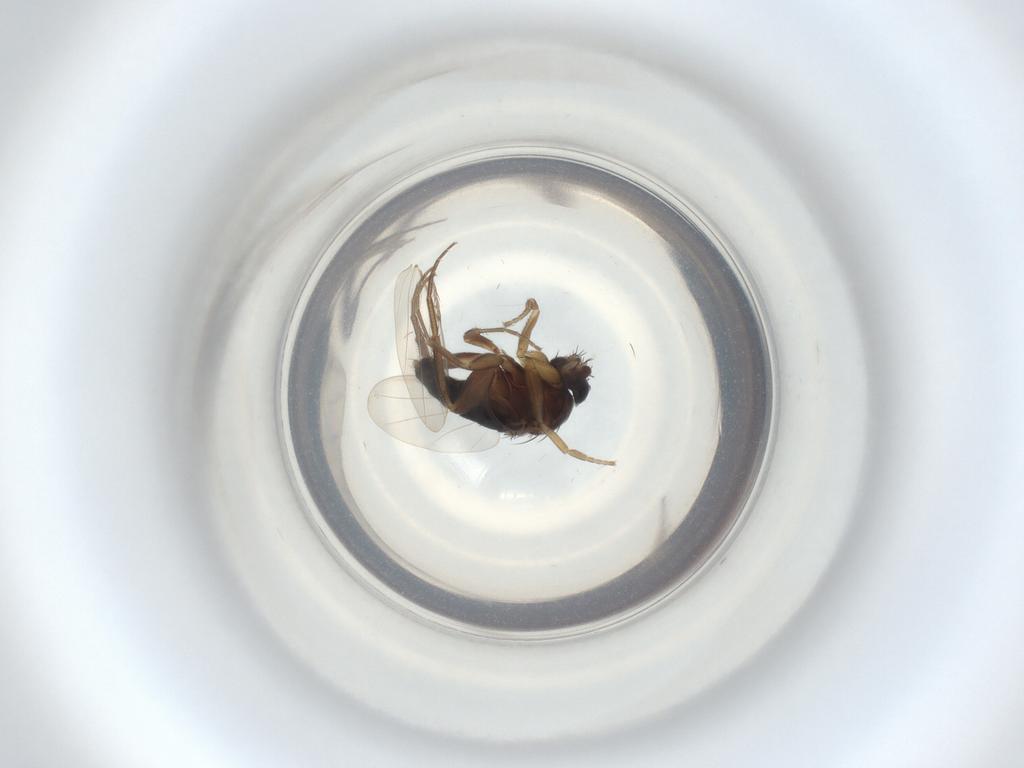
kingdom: Animalia
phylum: Arthropoda
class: Insecta
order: Diptera
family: Phoridae
